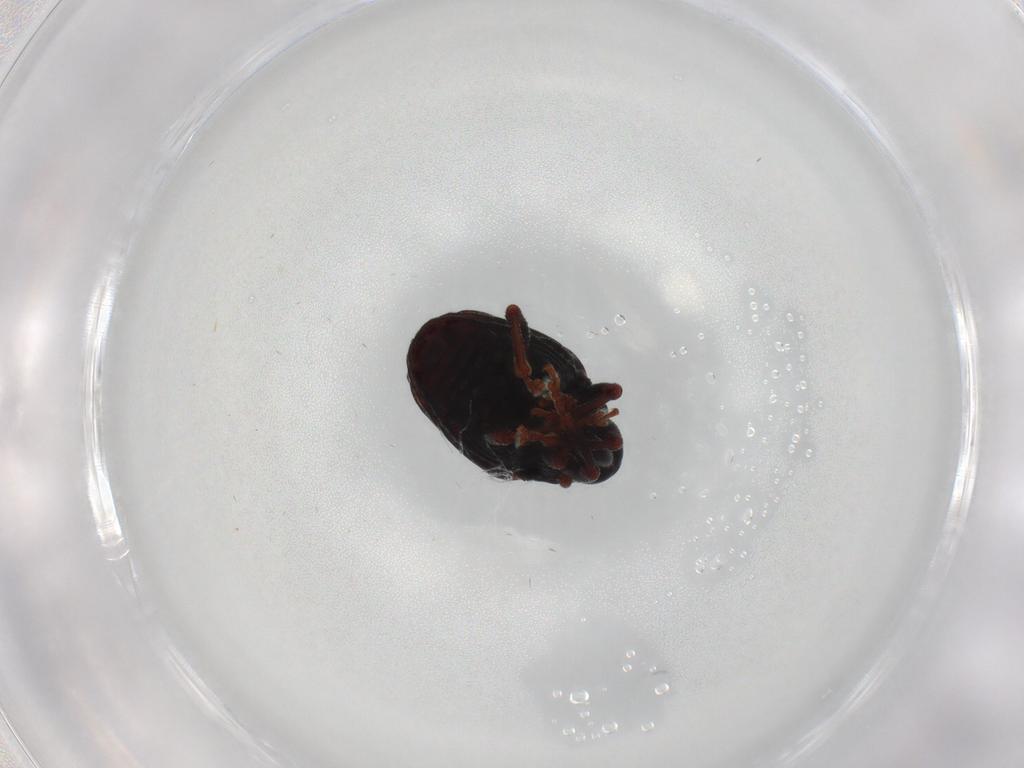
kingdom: Animalia
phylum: Arthropoda
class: Insecta
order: Coleoptera
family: Curculionidae
